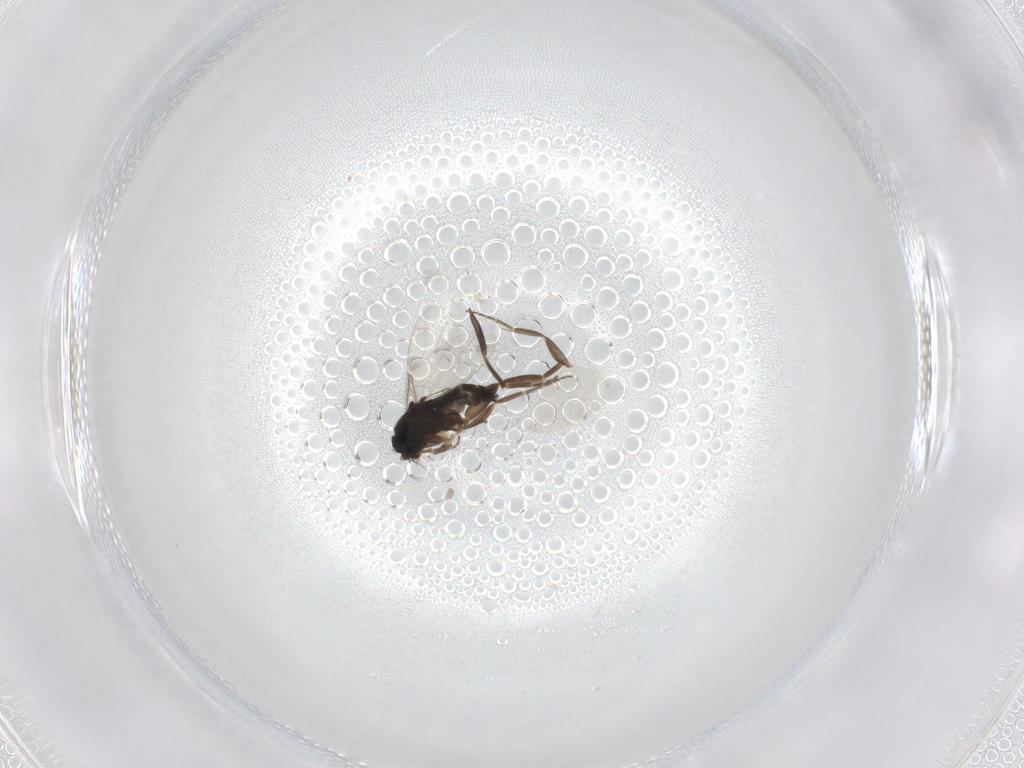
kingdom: Animalia
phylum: Arthropoda
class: Insecta
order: Diptera
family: Phoridae
